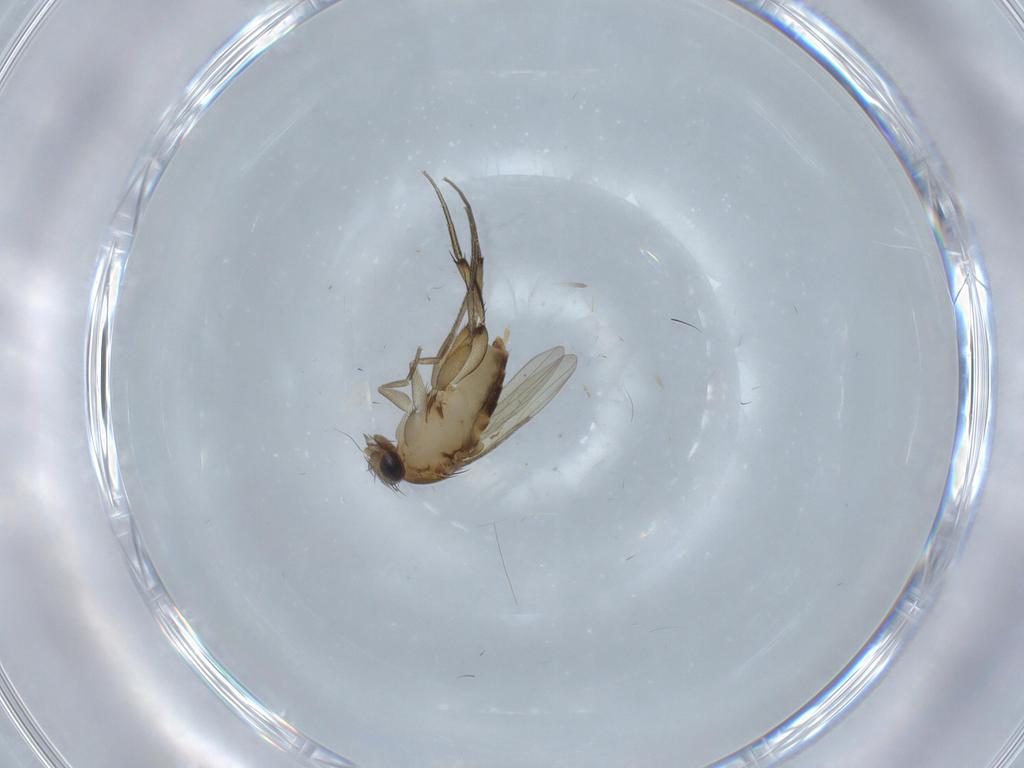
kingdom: Animalia
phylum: Arthropoda
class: Insecta
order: Diptera
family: Phoridae
